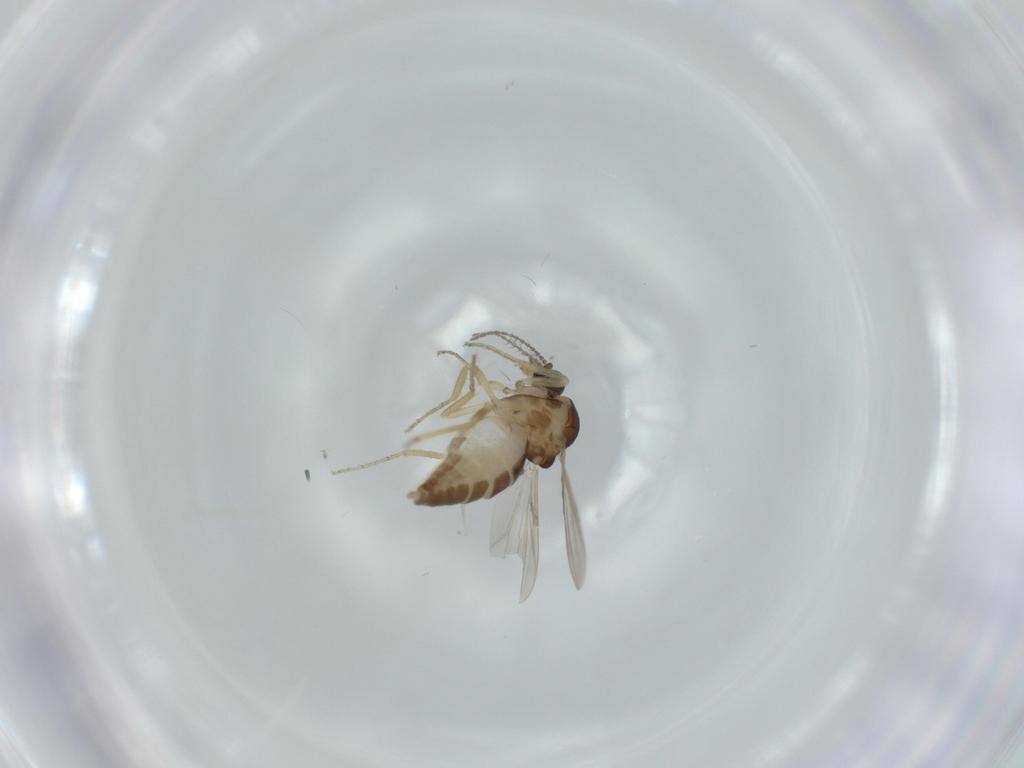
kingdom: Animalia
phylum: Arthropoda
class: Insecta
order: Diptera
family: Ceratopogonidae
